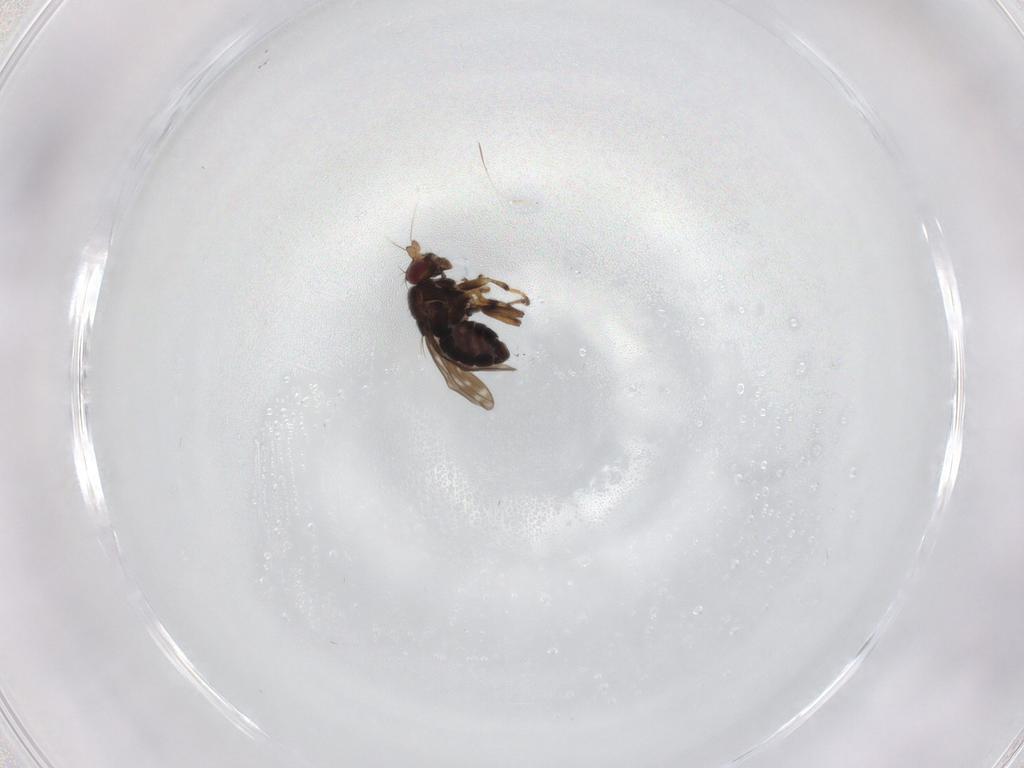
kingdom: Animalia
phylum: Arthropoda
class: Insecta
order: Diptera
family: Sphaeroceridae
